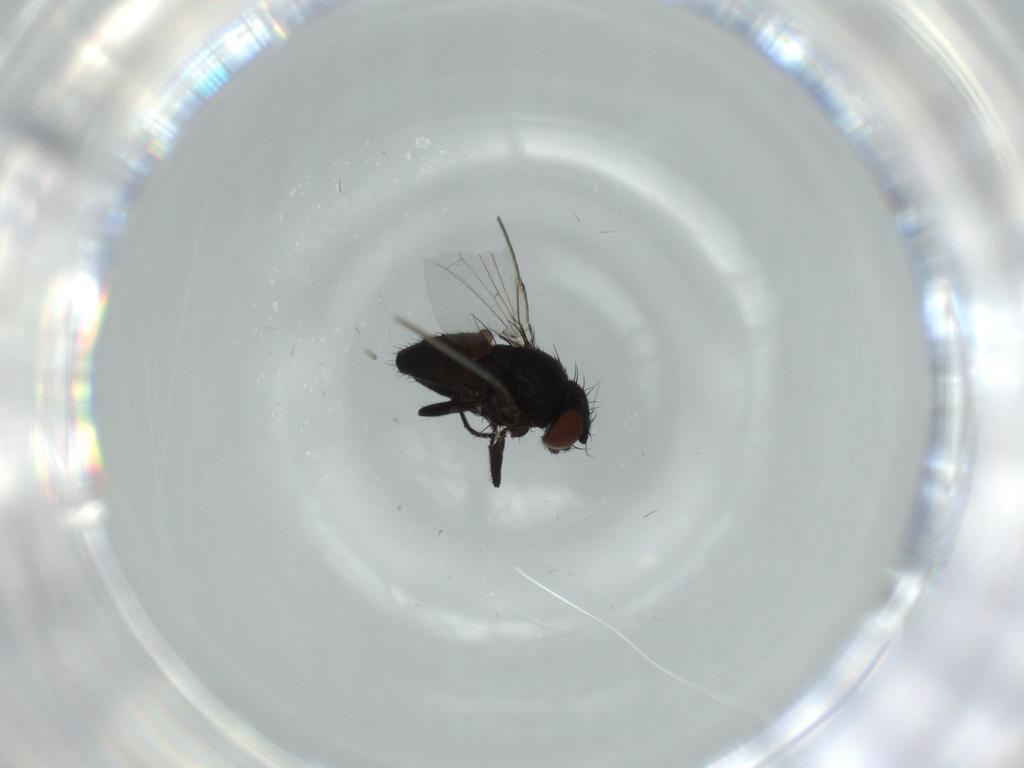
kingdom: Animalia
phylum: Arthropoda
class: Insecta
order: Diptera
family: Milichiidae
